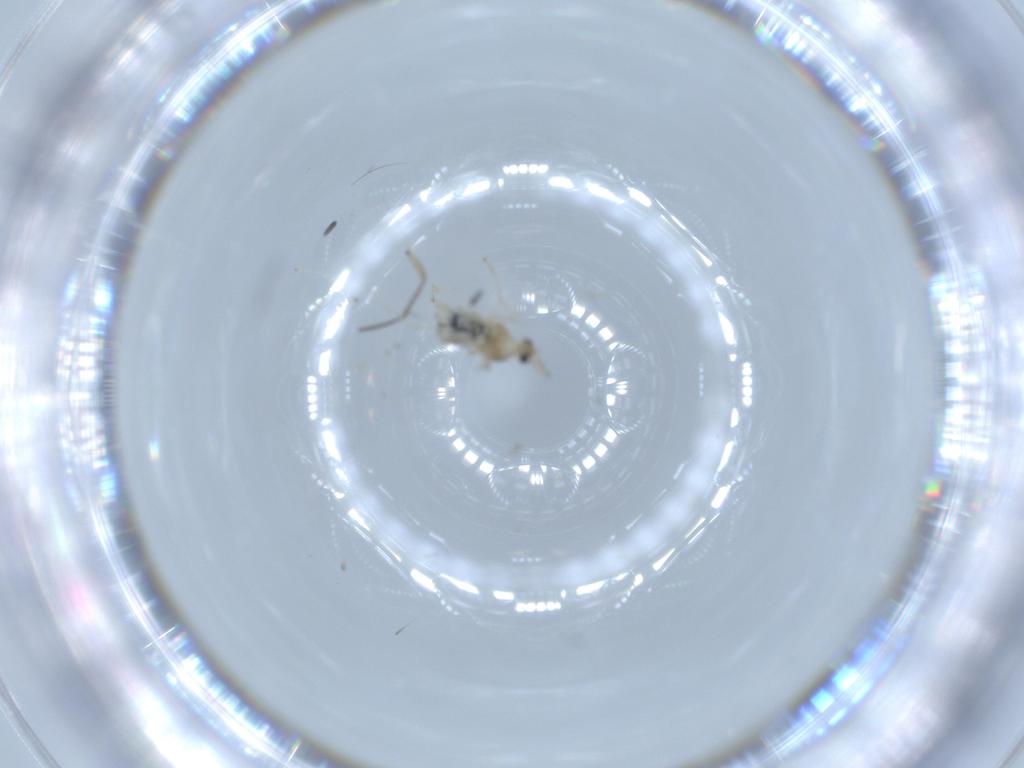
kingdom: Animalia
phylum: Arthropoda
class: Insecta
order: Diptera
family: Cecidomyiidae
